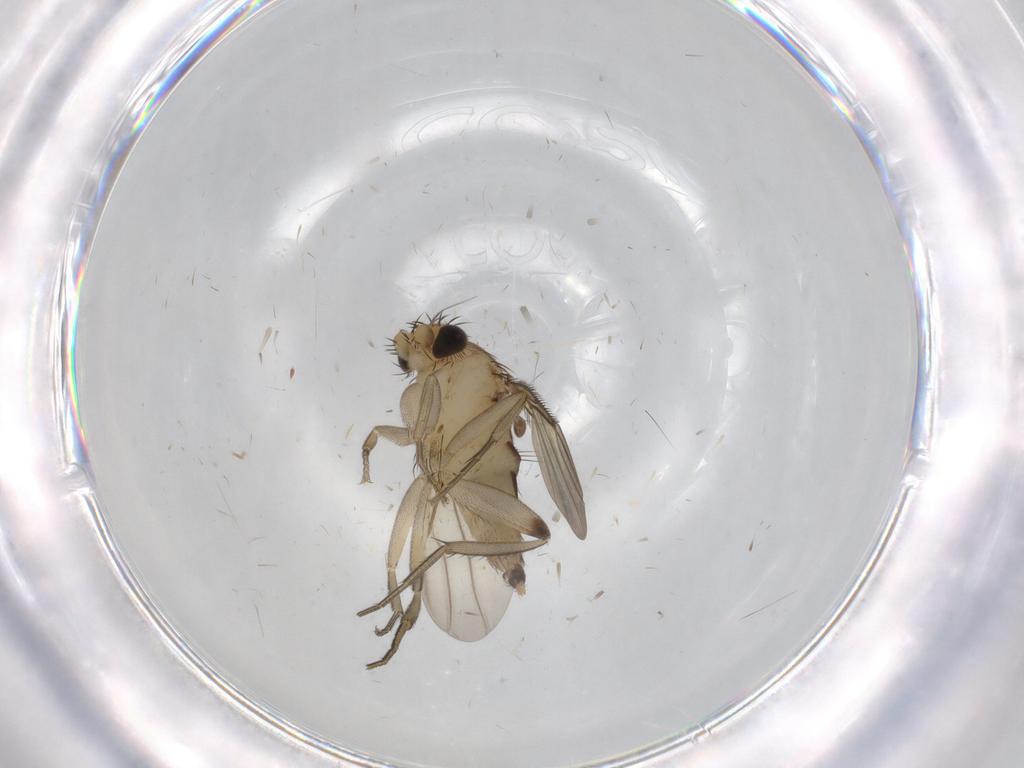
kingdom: Animalia
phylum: Arthropoda
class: Insecta
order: Diptera
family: Phoridae
